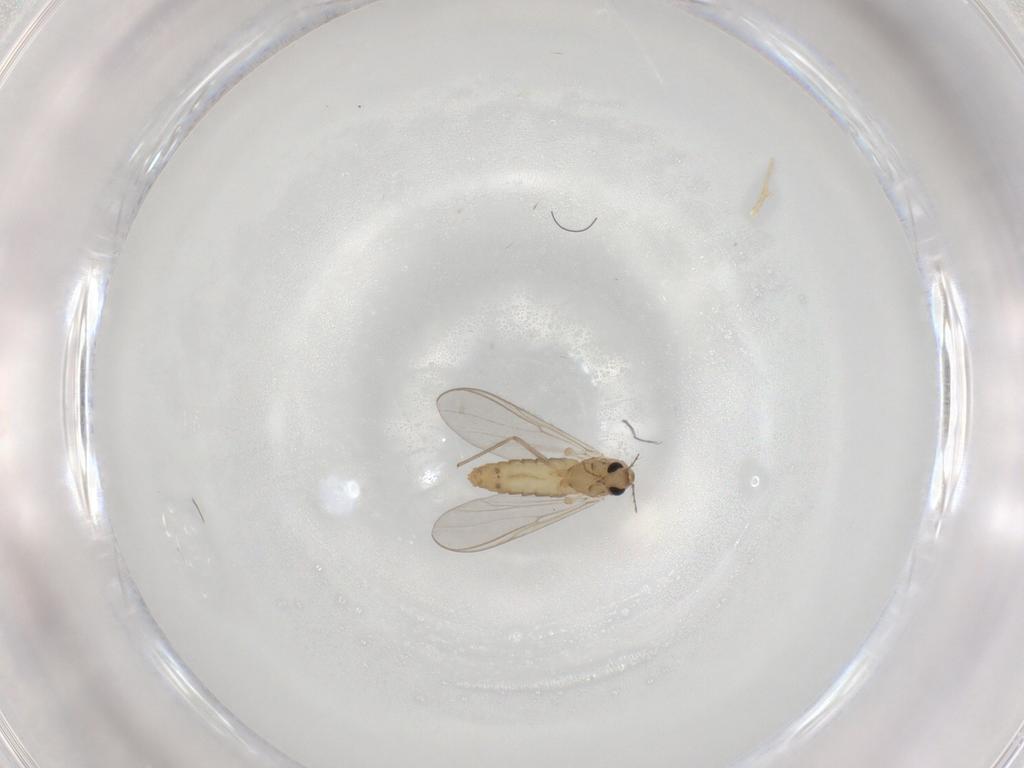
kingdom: Animalia
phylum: Arthropoda
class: Insecta
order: Diptera
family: Chironomidae
